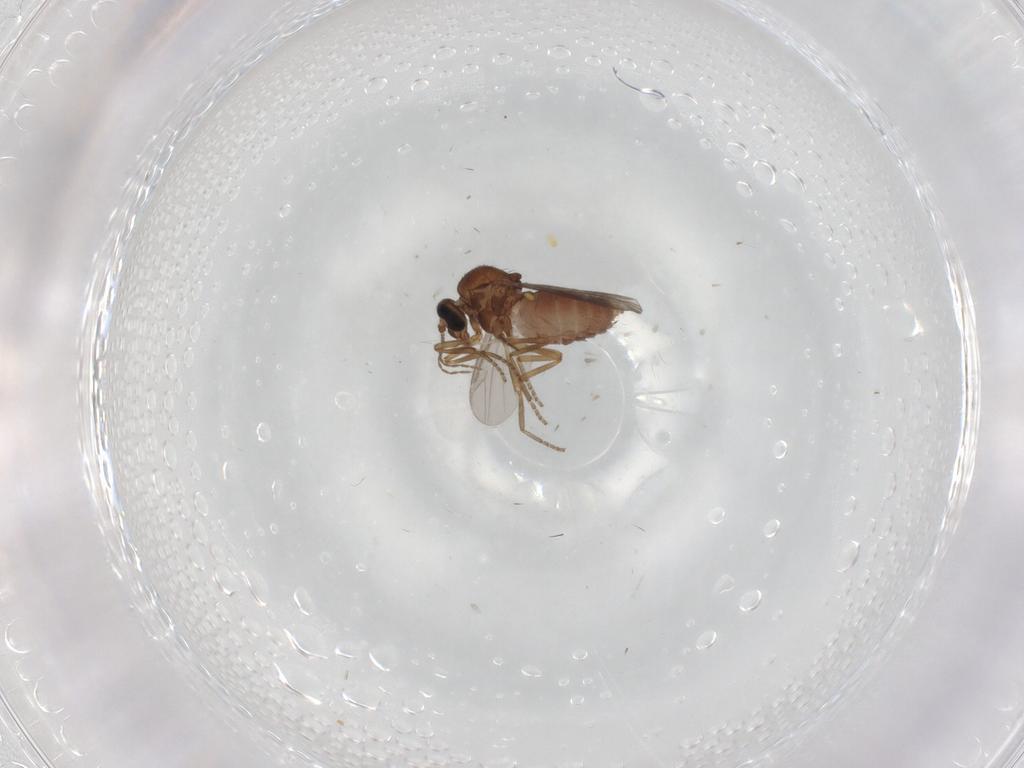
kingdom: Animalia
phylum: Arthropoda
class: Insecta
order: Diptera
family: Ceratopogonidae
